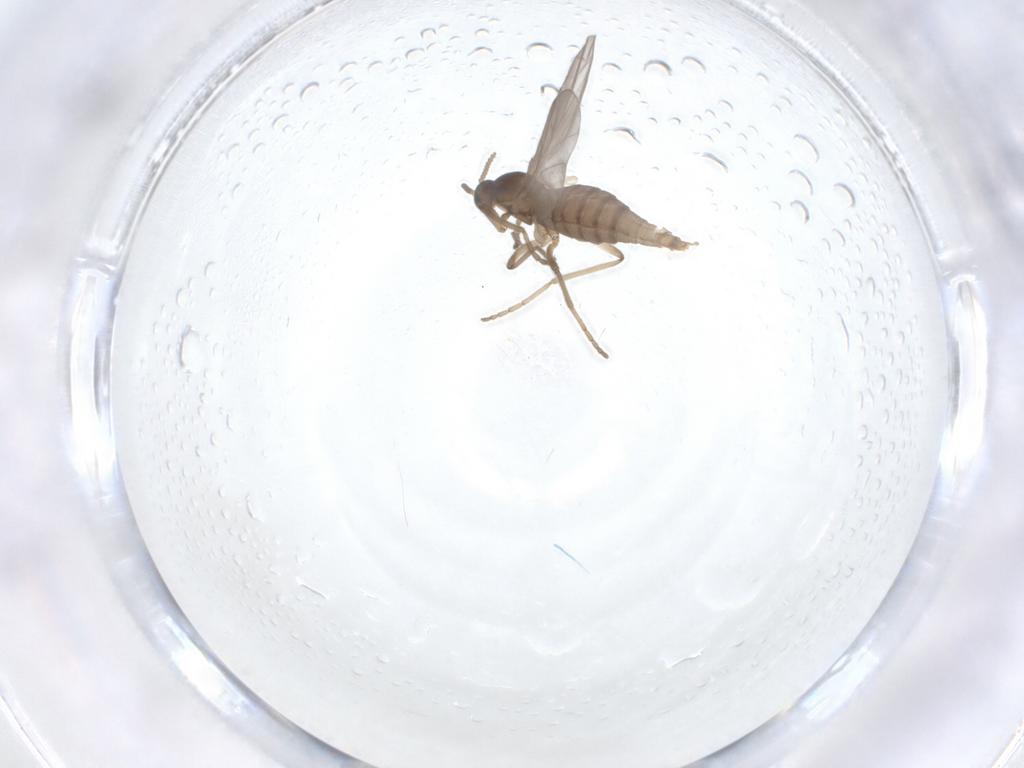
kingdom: Animalia
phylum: Arthropoda
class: Insecta
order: Diptera
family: Cecidomyiidae
